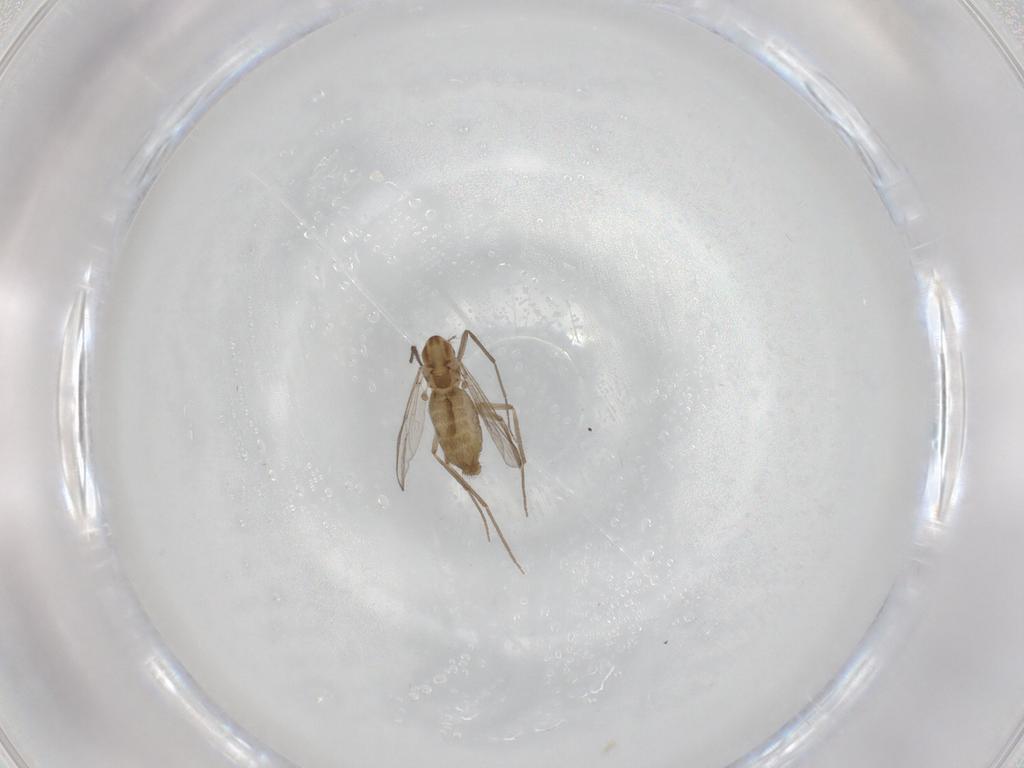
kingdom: Animalia
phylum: Arthropoda
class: Insecta
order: Diptera
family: Chironomidae
